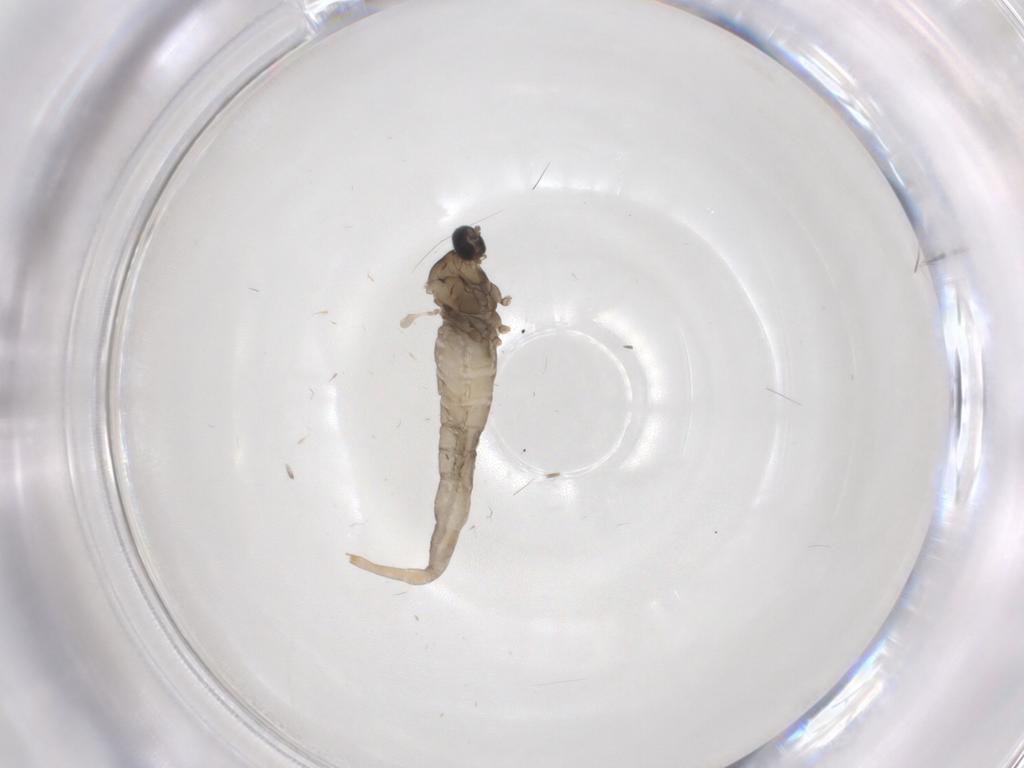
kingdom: Animalia
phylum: Arthropoda
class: Insecta
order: Diptera
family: Cecidomyiidae
